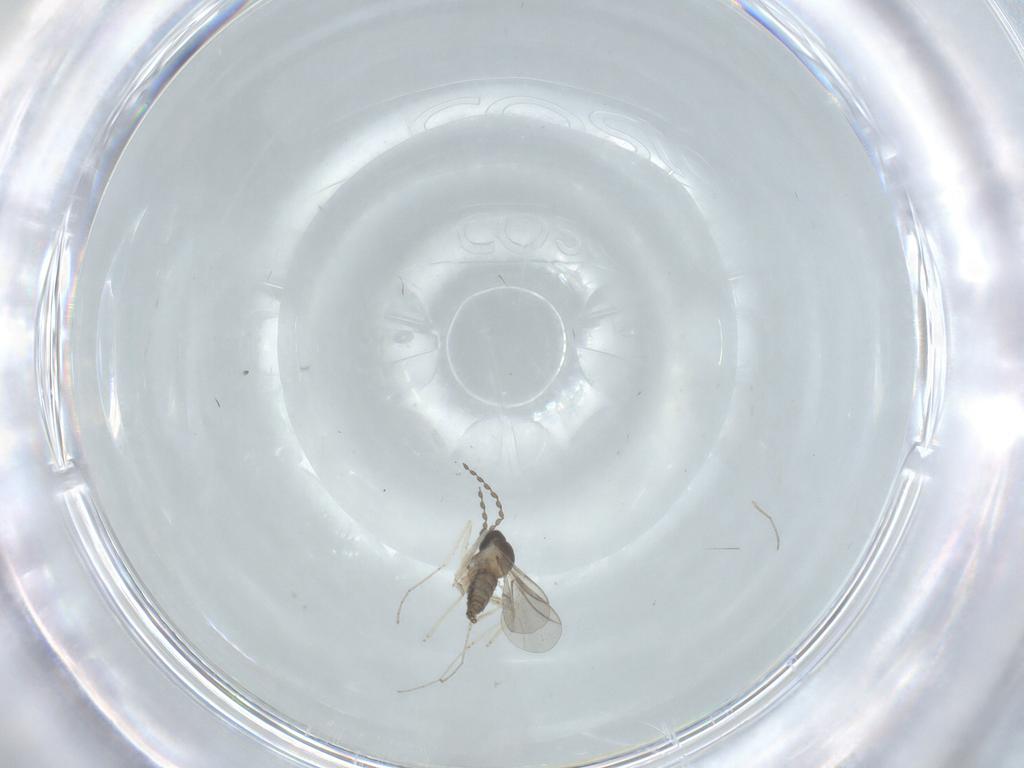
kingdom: Animalia
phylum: Arthropoda
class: Insecta
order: Diptera
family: Cecidomyiidae
